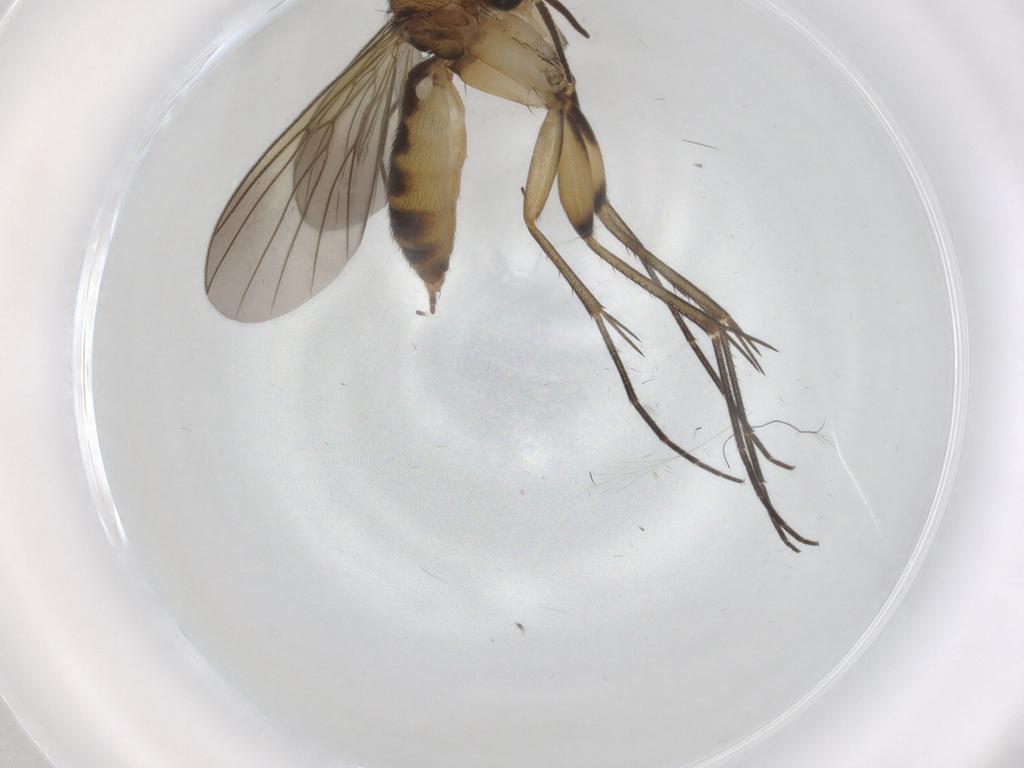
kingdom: Animalia
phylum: Arthropoda
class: Insecta
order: Diptera
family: Mycetophilidae
